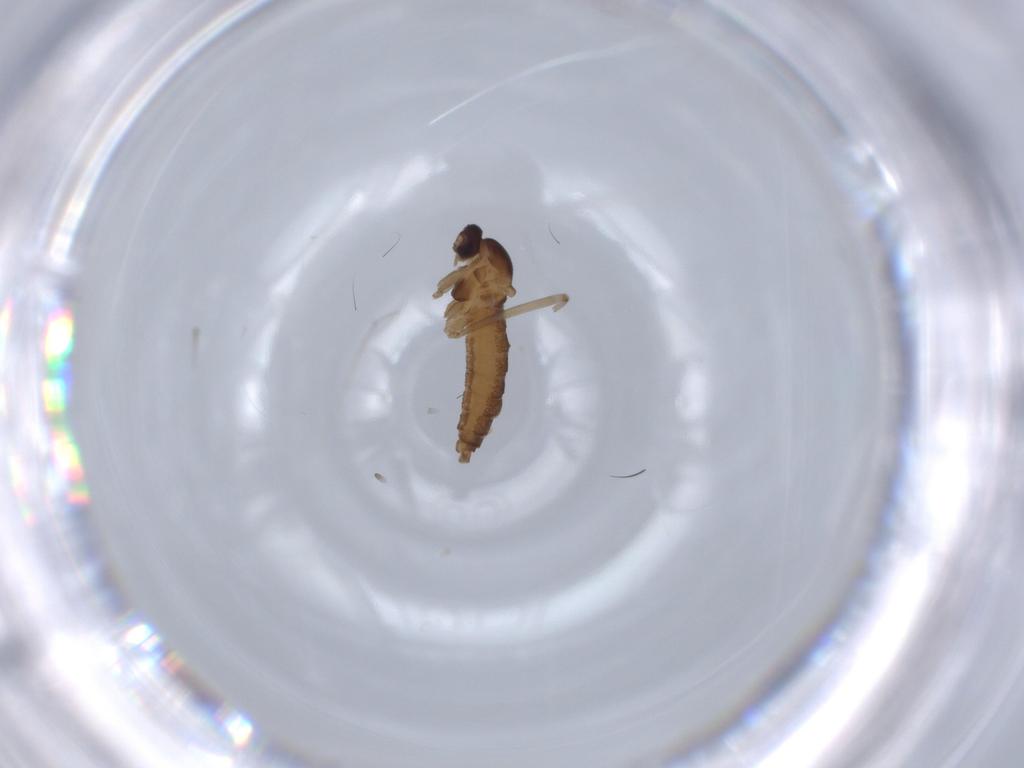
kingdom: Animalia
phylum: Arthropoda
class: Insecta
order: Diptera
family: Cecidomyiidae
